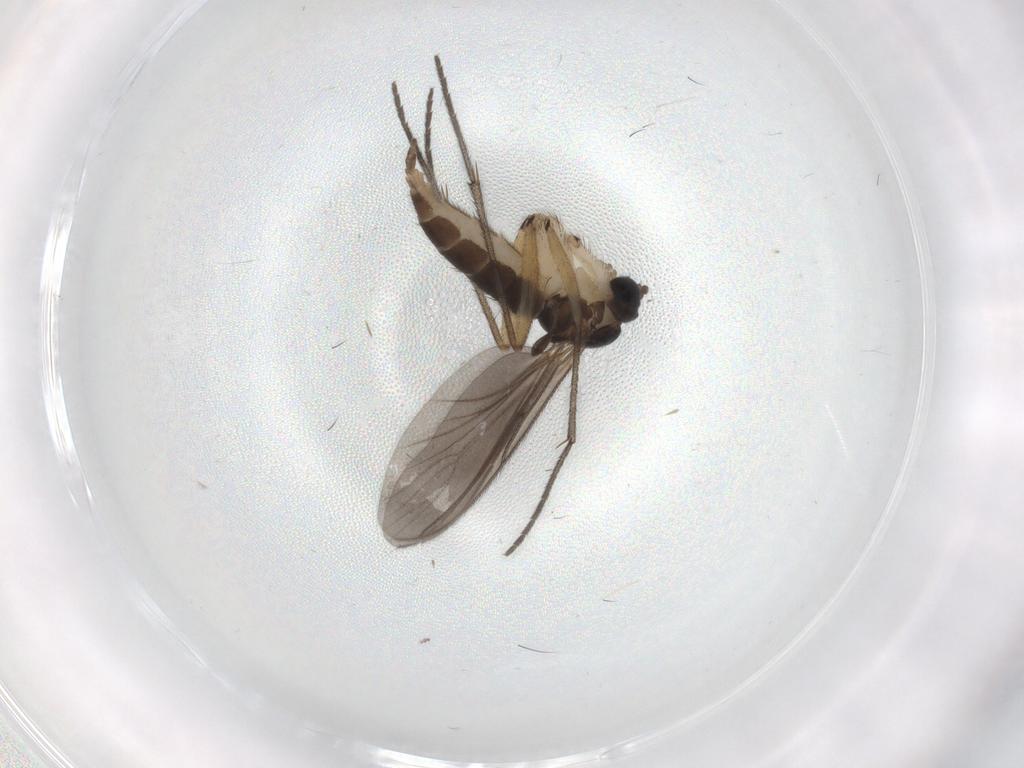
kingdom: Animalia
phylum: Arthropoda
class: Insecta
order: Diptera
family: Sciaridae
